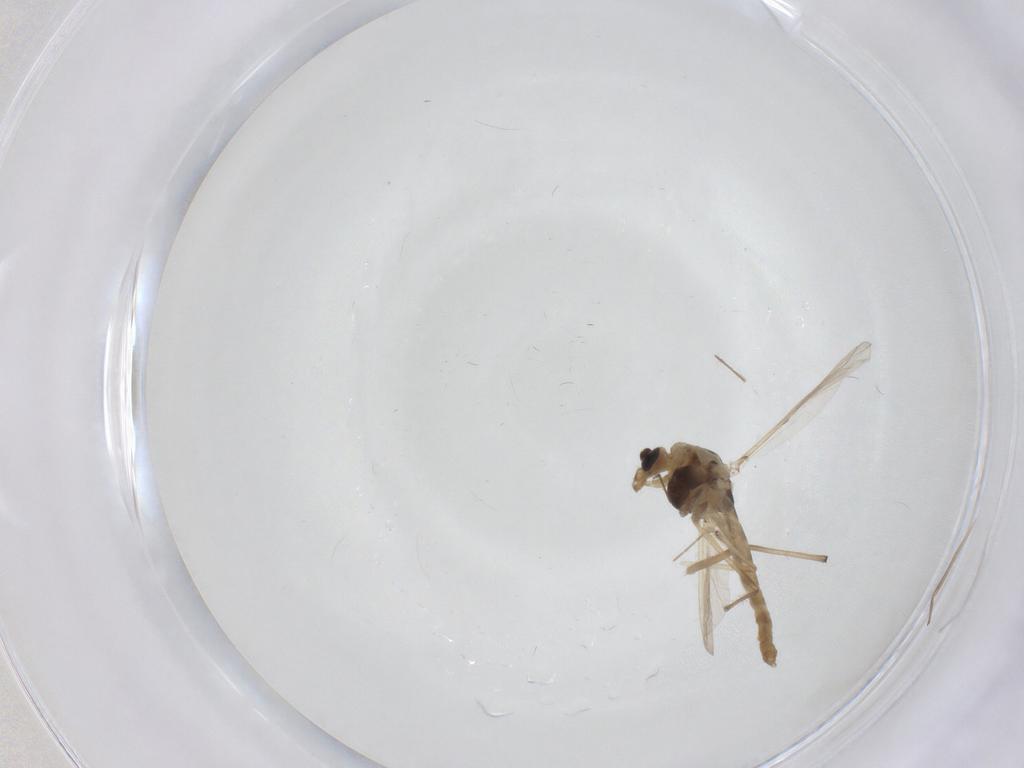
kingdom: Animalia
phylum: Arthropoda
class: Insecta
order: Diptera
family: Chironomidae
